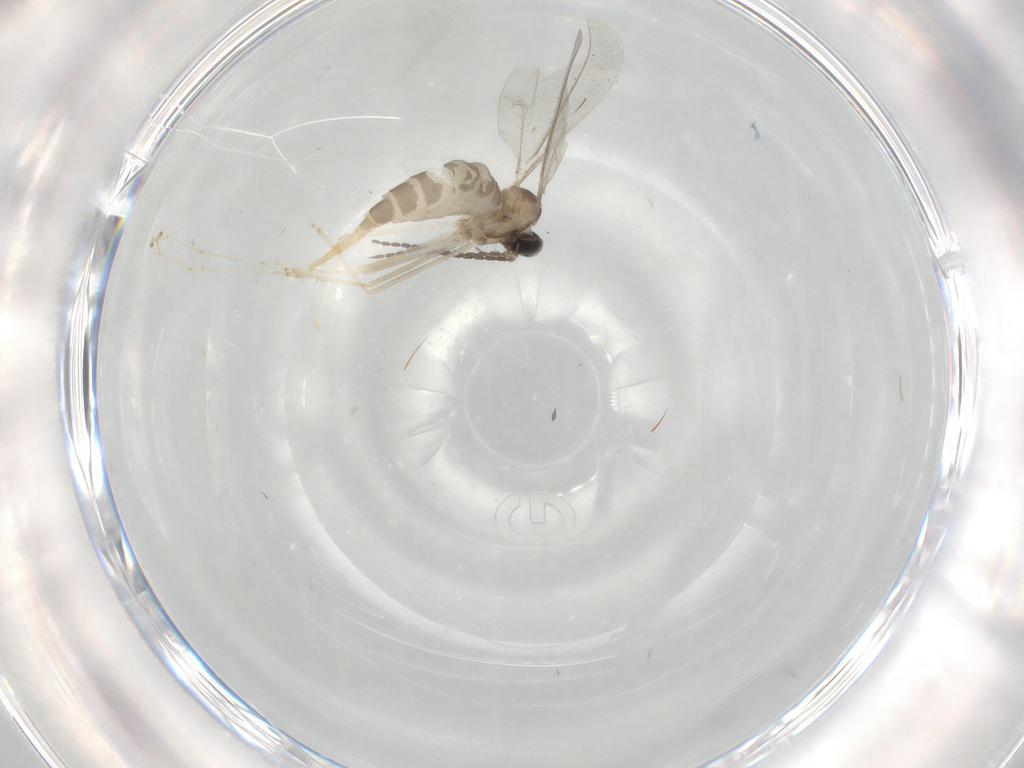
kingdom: Animalia
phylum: Arthropoda
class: Insecta
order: Diptera
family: Cecidomyiidae
